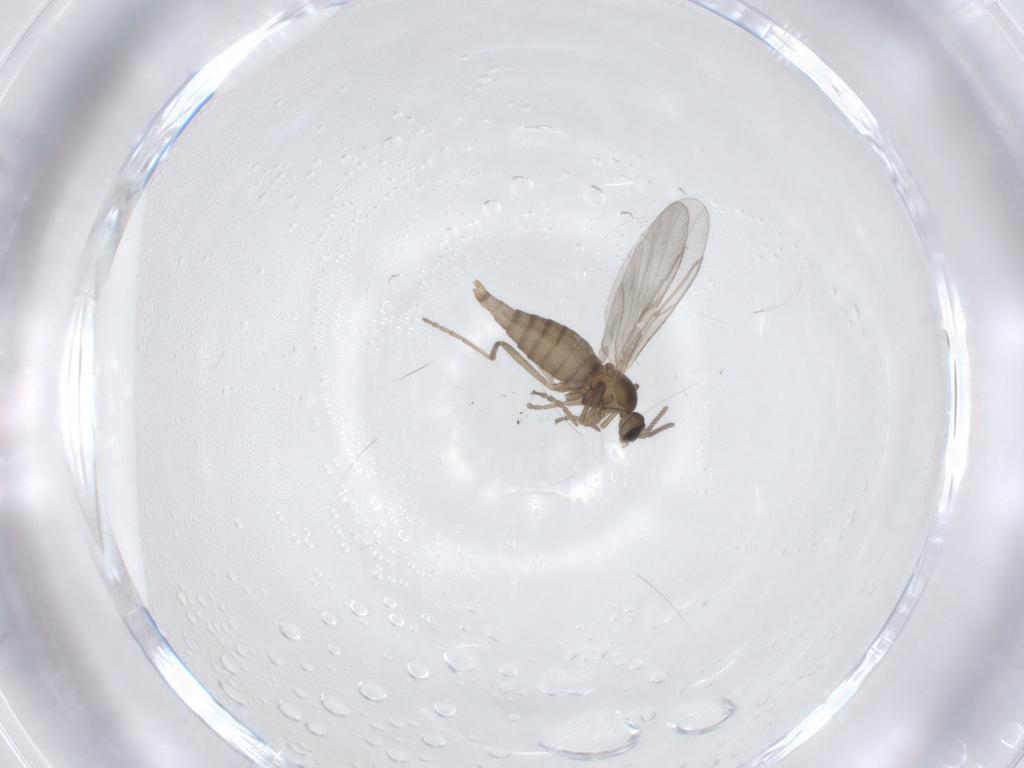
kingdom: Animalia
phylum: Arthropoda
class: Insecta
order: Diptera
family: Cecidomyiidae
